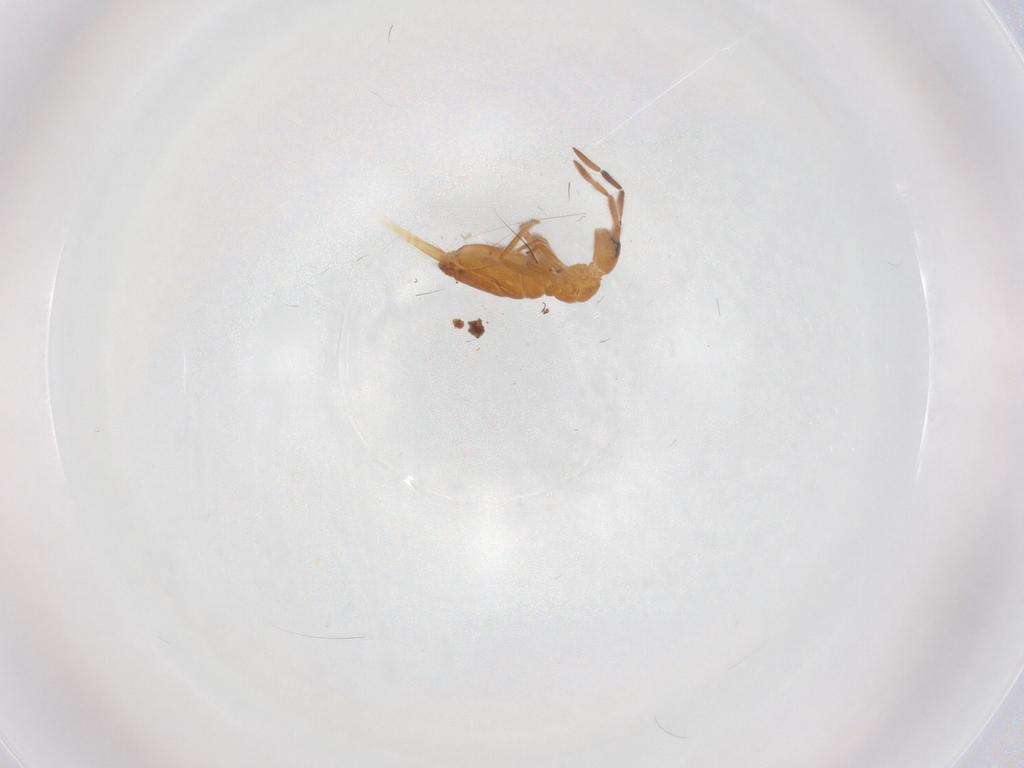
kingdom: Animalia
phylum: Arthropoda
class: Collembola
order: Entomobryomorpha
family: Entomobryidae
